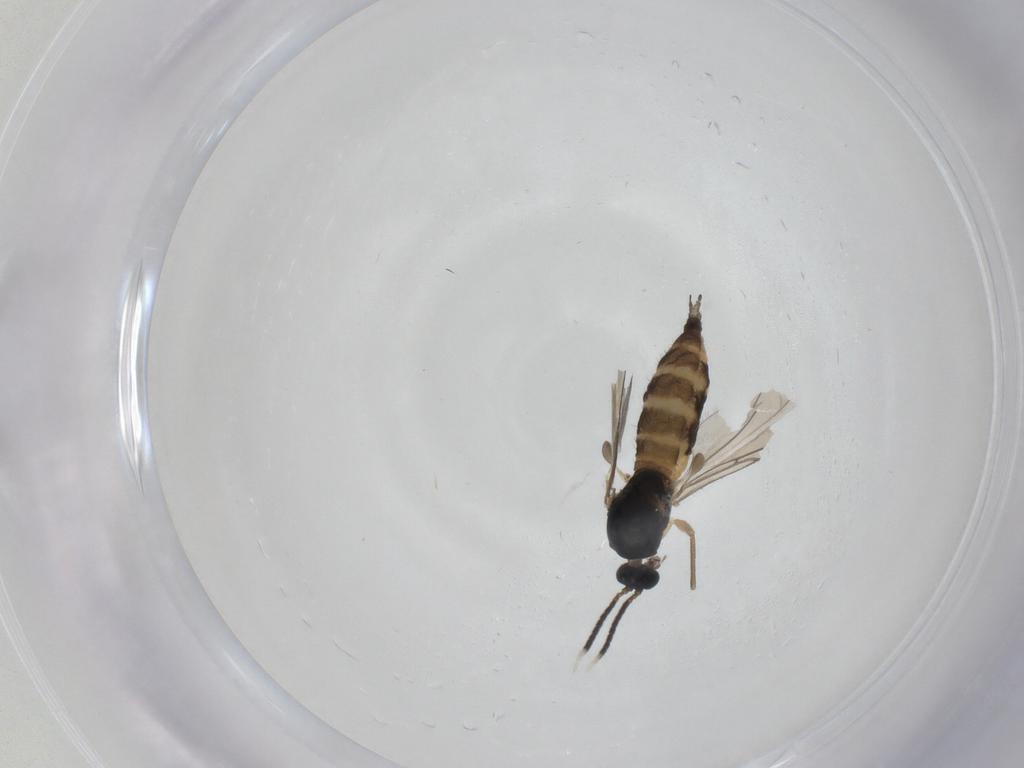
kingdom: Animalia
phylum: Arthropoda
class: Insecta
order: Diptera
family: Sciaridae
